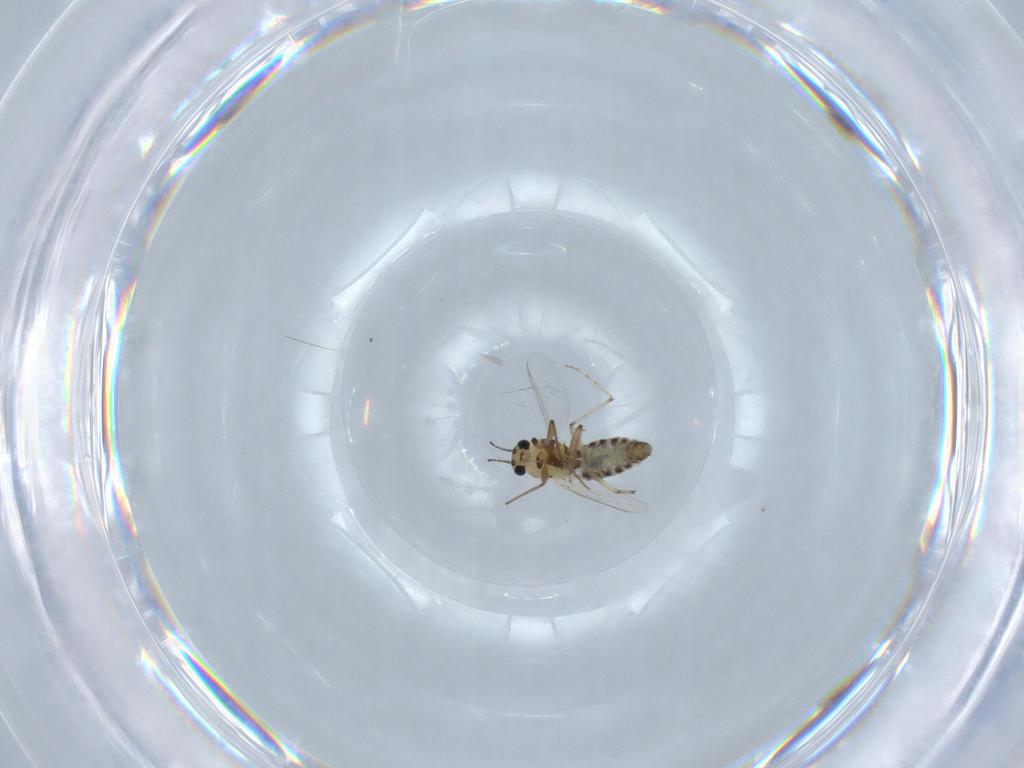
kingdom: Animalia
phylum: Arthropoda
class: Insecta
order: Diptera
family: Chironomidae
